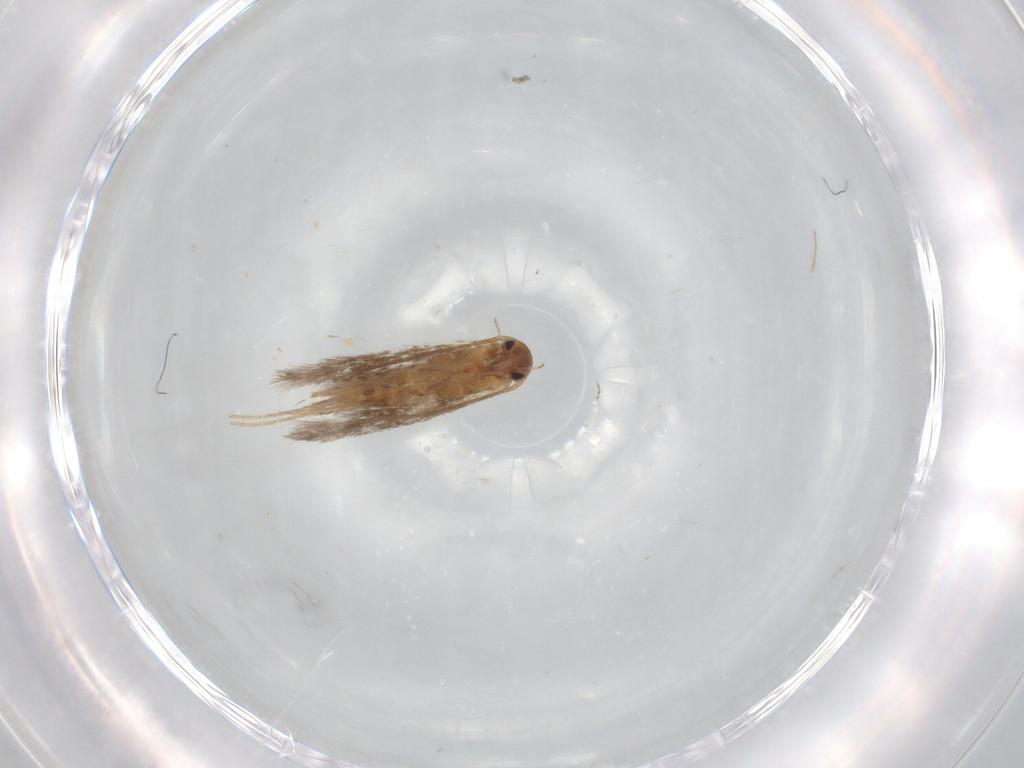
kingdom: Animalia
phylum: Arthropoda
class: Insecta
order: Lepidoptera
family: Elachistidae
